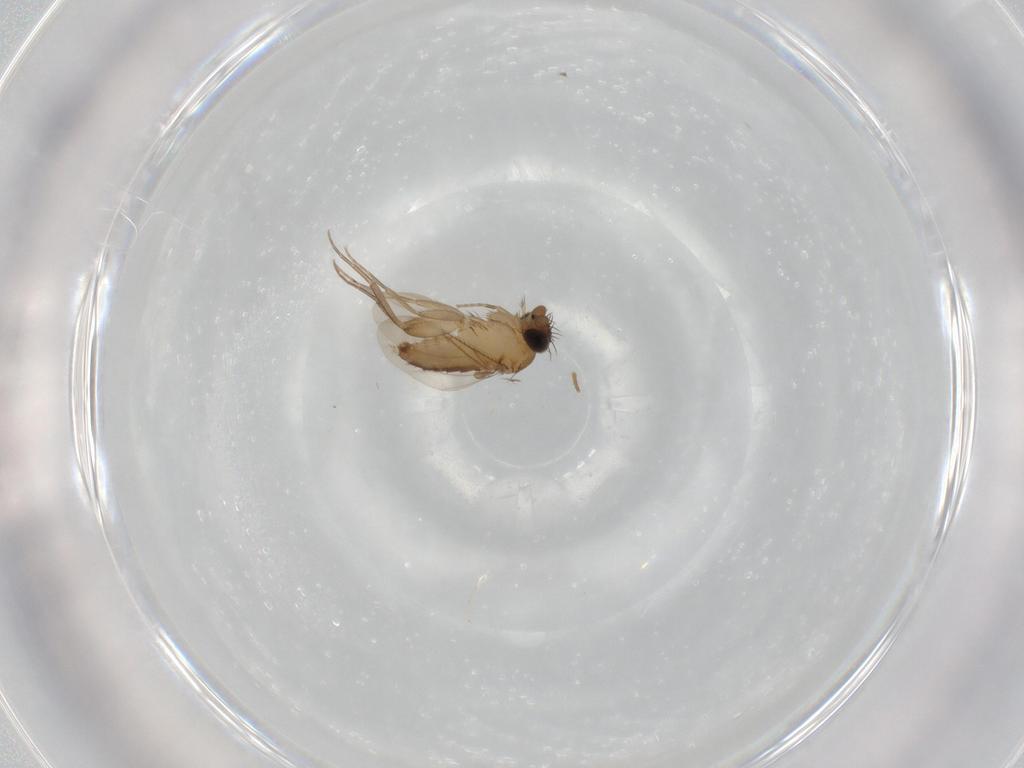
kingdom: Animalia
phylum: Arthropoda
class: Insecta
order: Diptera
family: Phoridae
